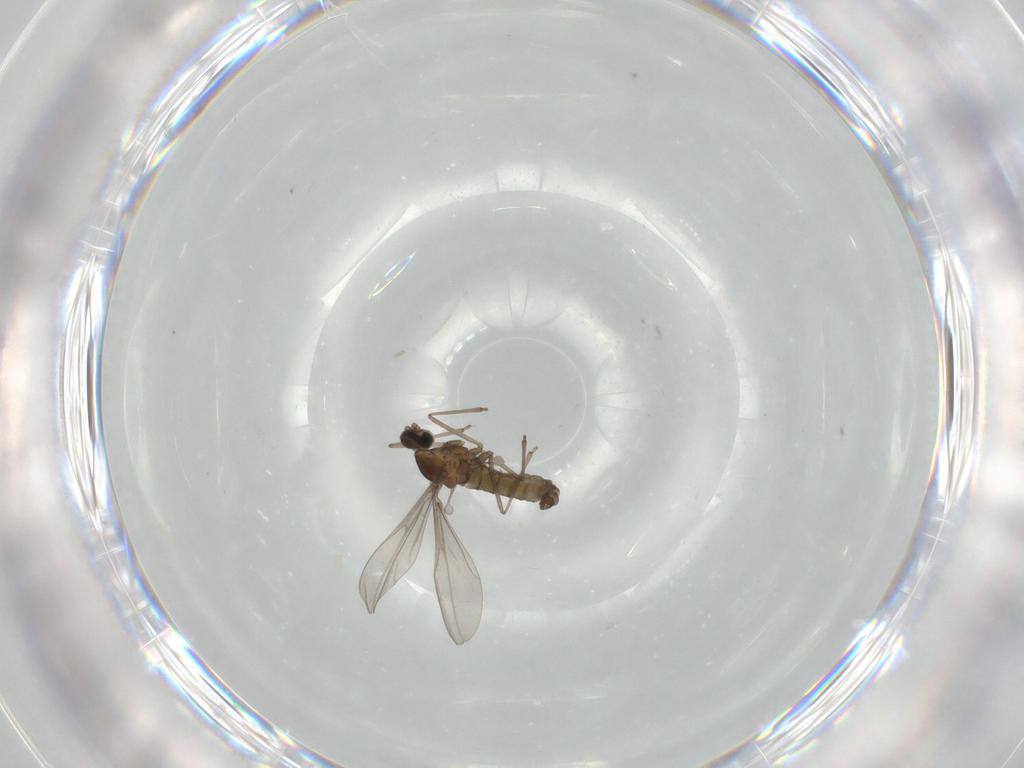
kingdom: Animalia
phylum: Arthropoda
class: Insecta
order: Diptera
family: Cecidomyiidae
